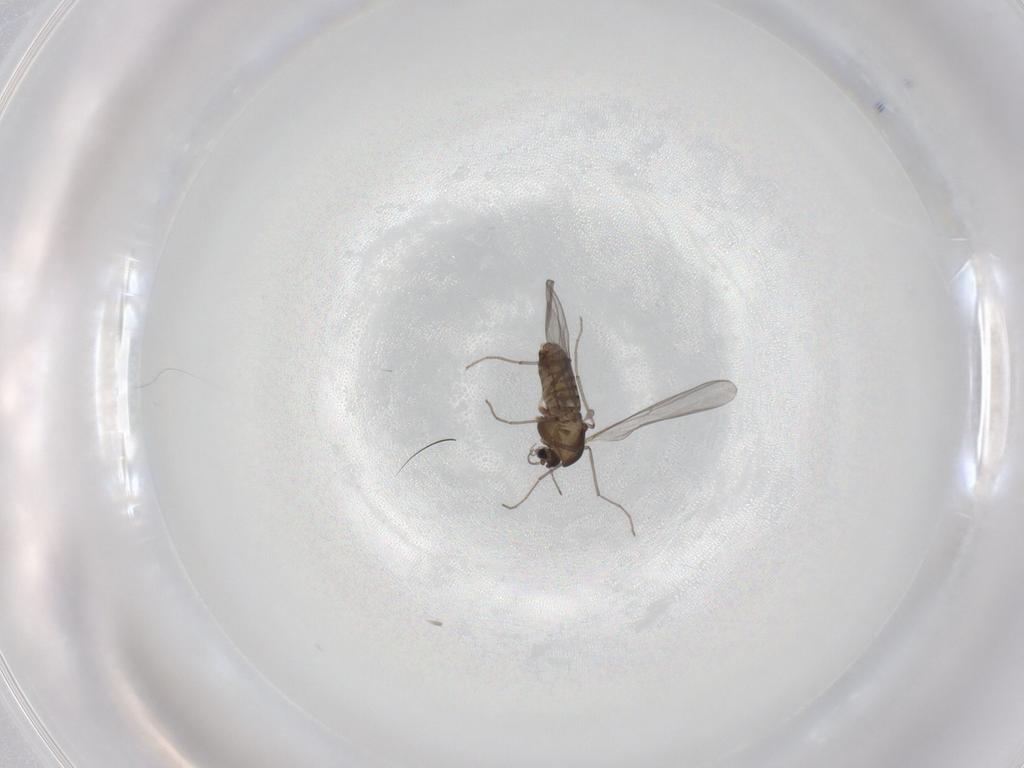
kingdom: Animalia
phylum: Arthropoda
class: Insecta
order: Diptera
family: Chironomidae
